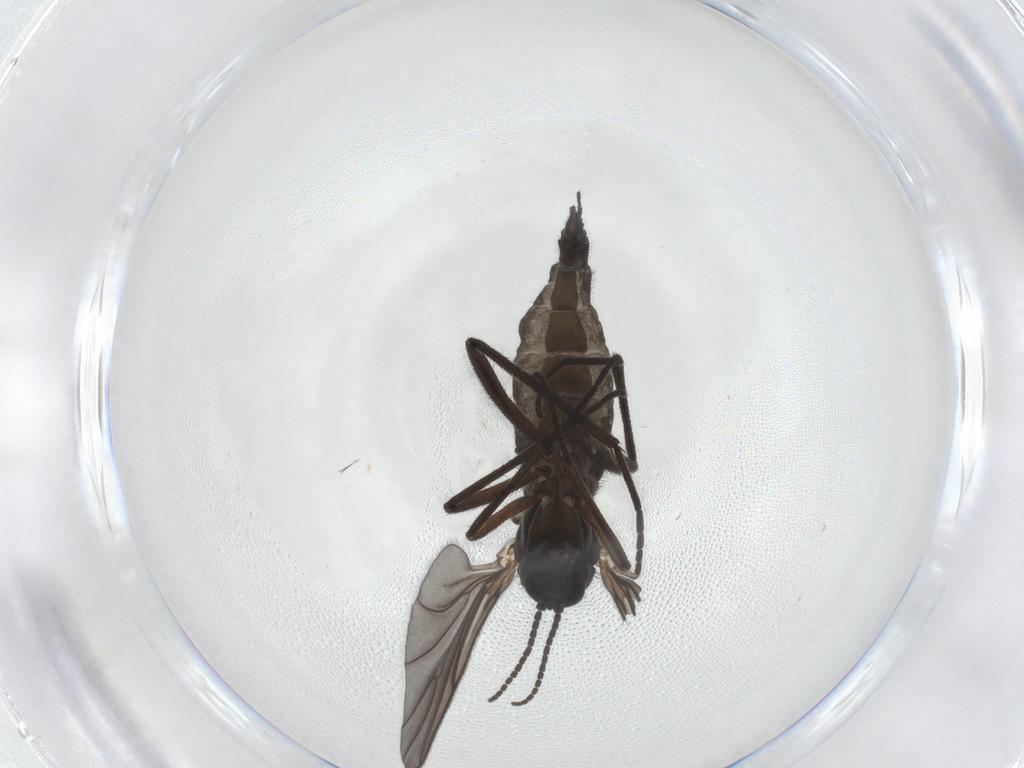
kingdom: Animalia
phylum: Arthropoda
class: Insecta
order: Diptera
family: Sciaridae
